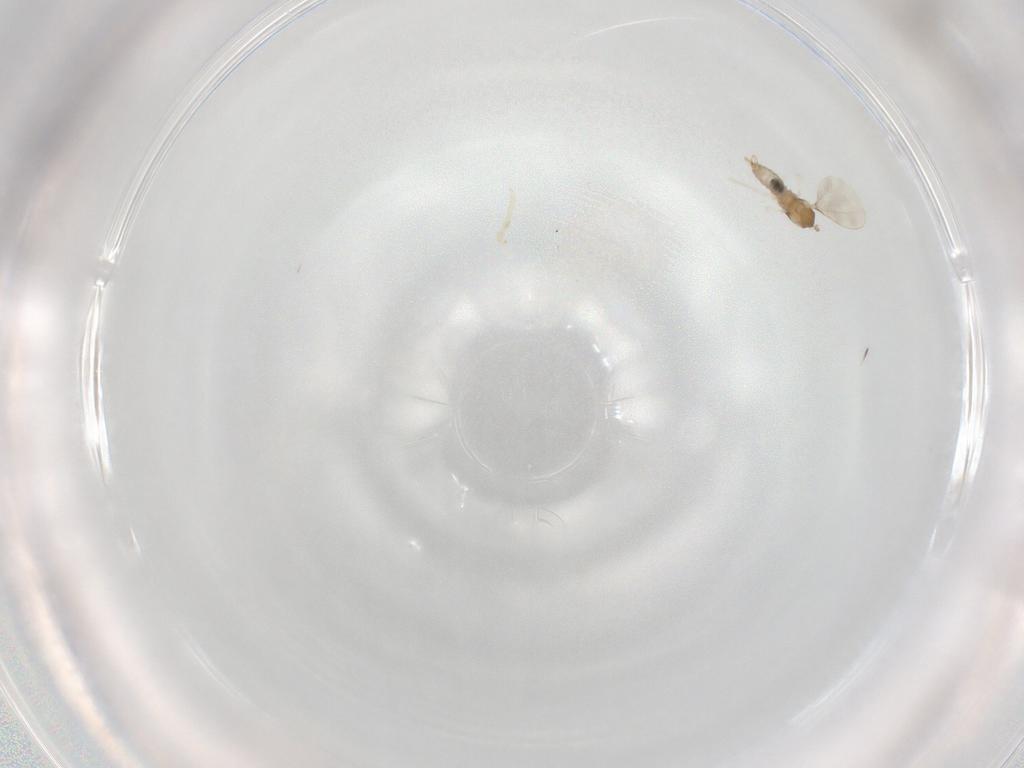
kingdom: Animalia
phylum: Arthropoda
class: Insecta
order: Diptera
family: Cecidomyiidae
